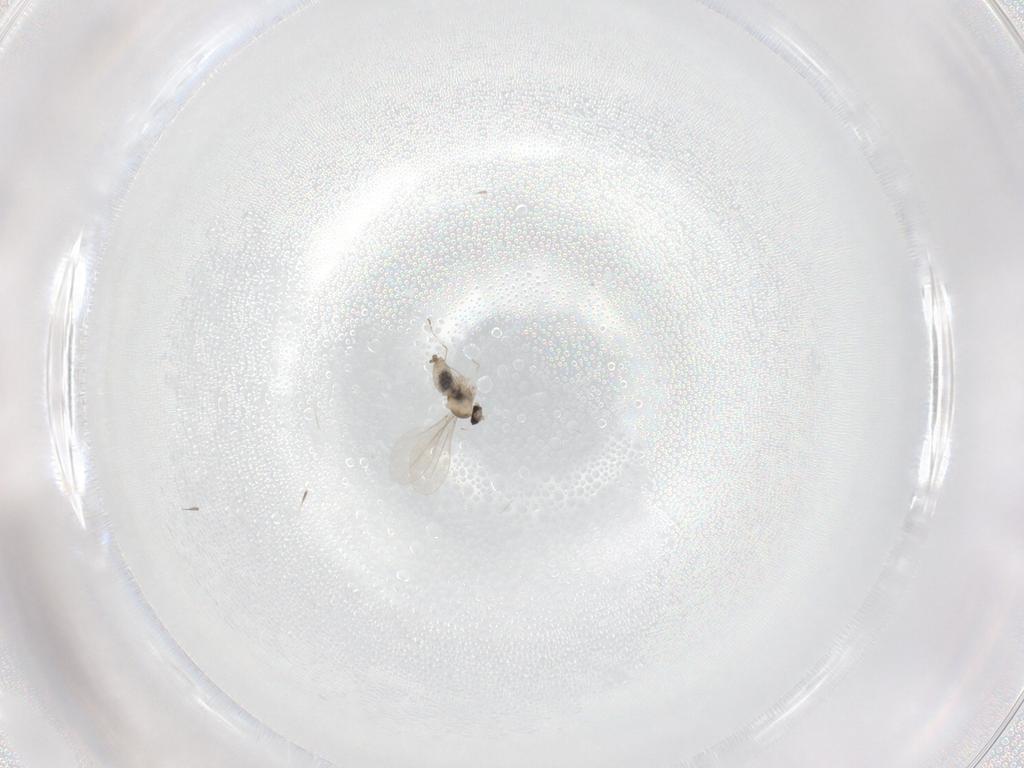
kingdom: Animalia
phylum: Arthropoda
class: Insecta
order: Diptera
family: Cecidomyiidae
